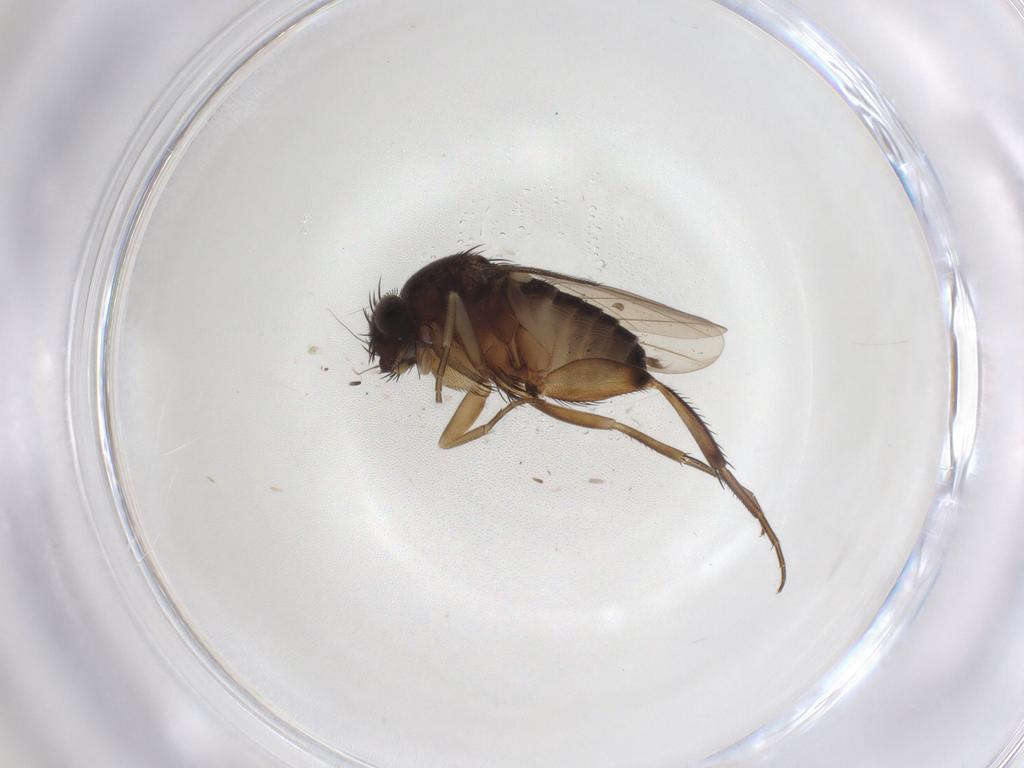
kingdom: Animalia
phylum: Arthropoda
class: Insecta
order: Diptera
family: Phoridae
